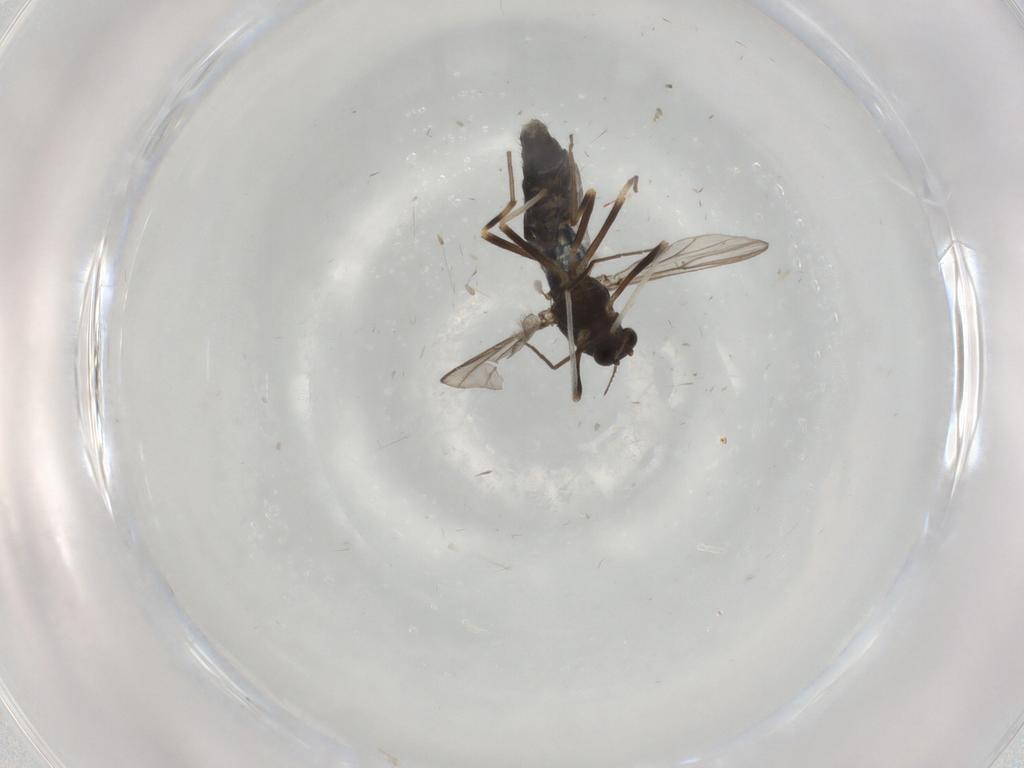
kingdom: Animalia
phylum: Arthropoda
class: Insecta
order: Diptera
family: Chironomidae
